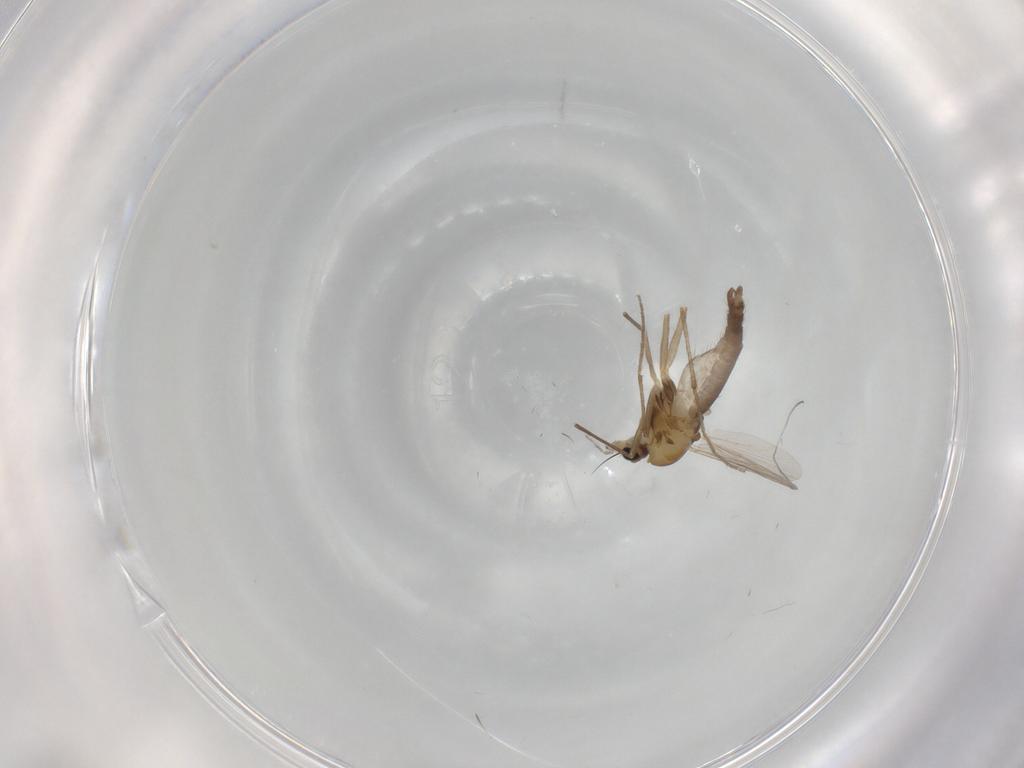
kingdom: Animalia
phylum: Arthropoda
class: Insecta
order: Diptera
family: Chironomidae
